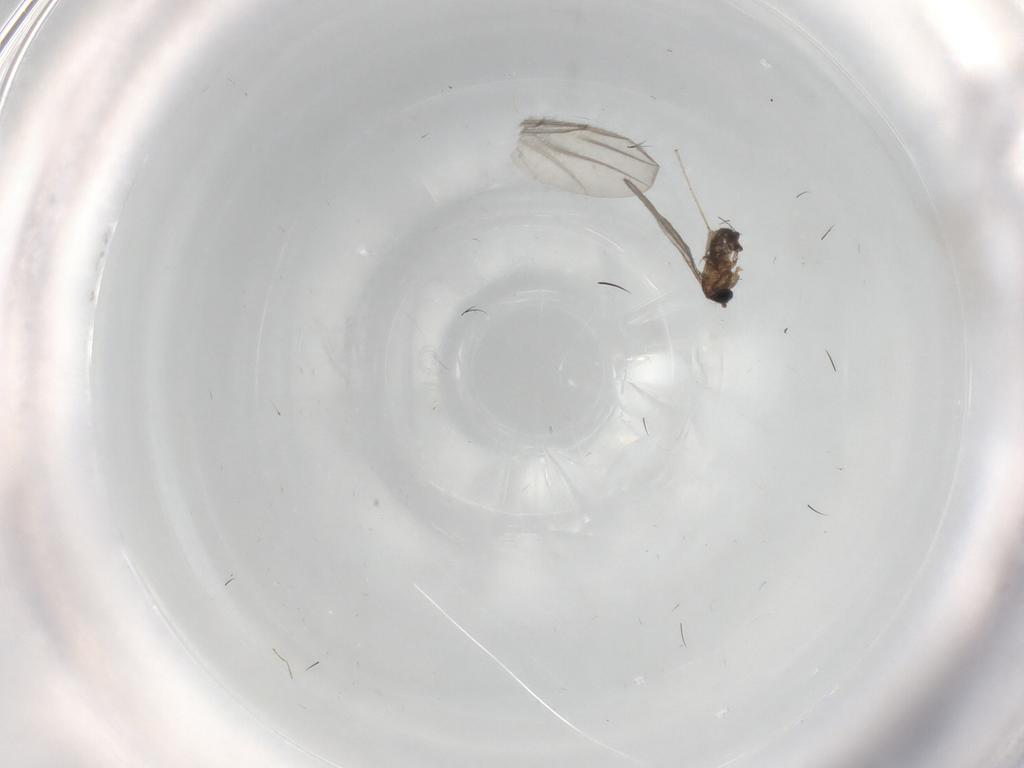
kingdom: Animalia
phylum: Arthropoda
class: Insecta
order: Diptera
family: Sciaridae
